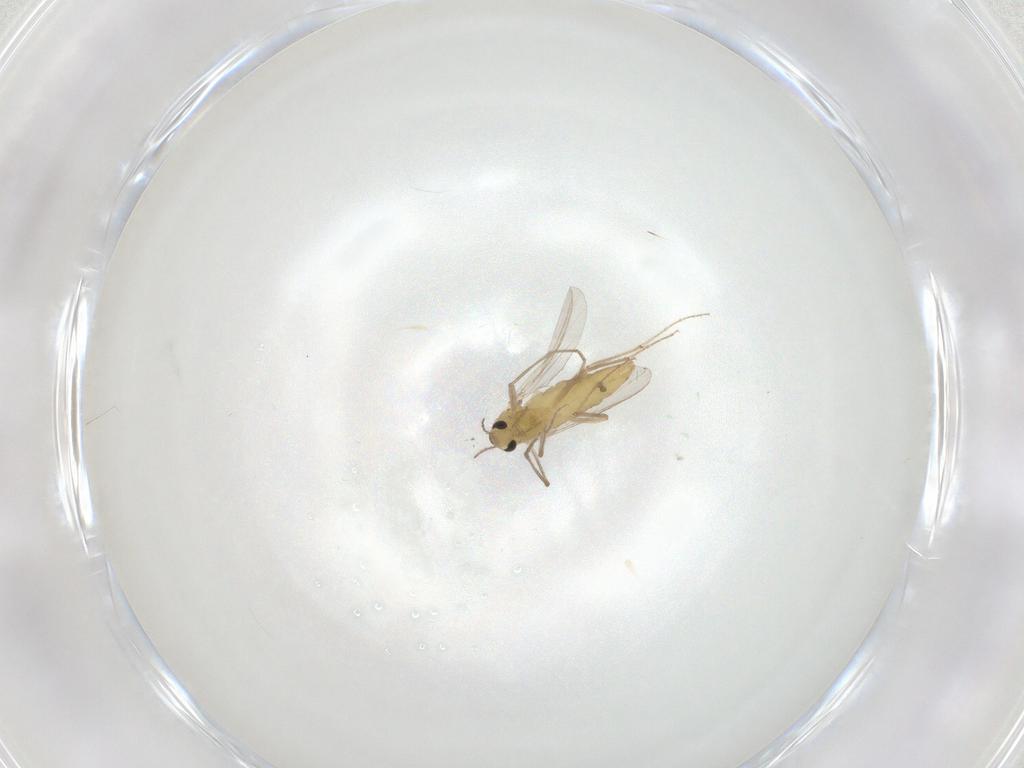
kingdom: Animalia
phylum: Arthropoda
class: Insecta
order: Diptera
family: Chironomidae
